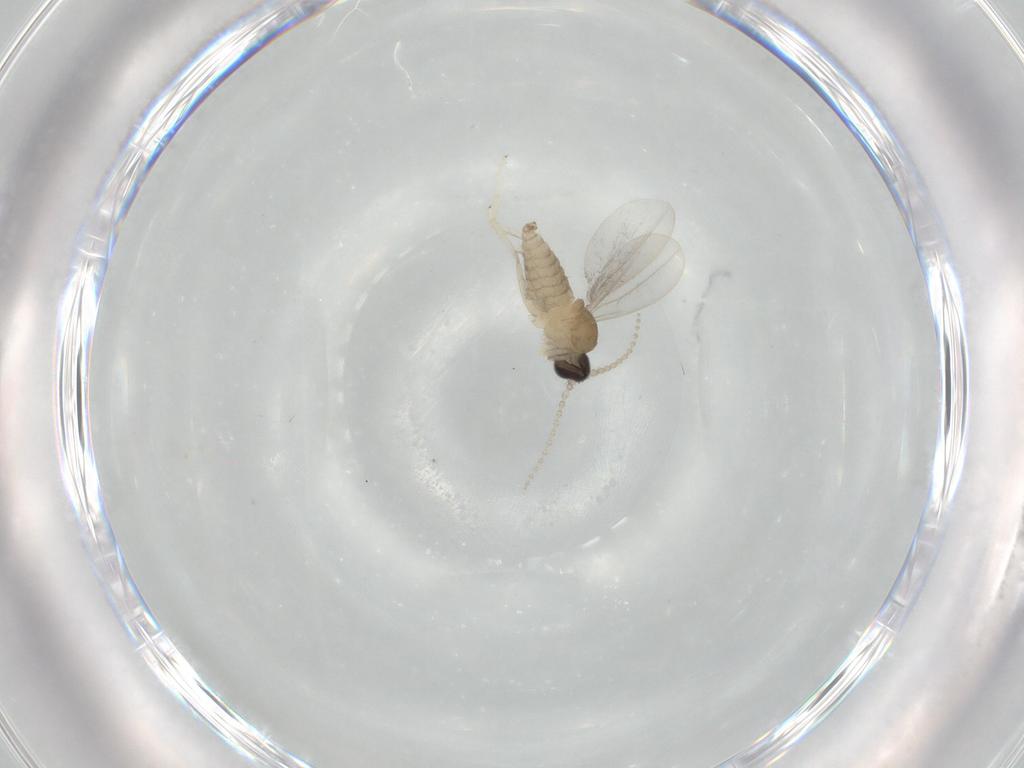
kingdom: Animalia
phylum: Arthropoda
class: Insecta
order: Diptera
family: Cecidomyiidae
